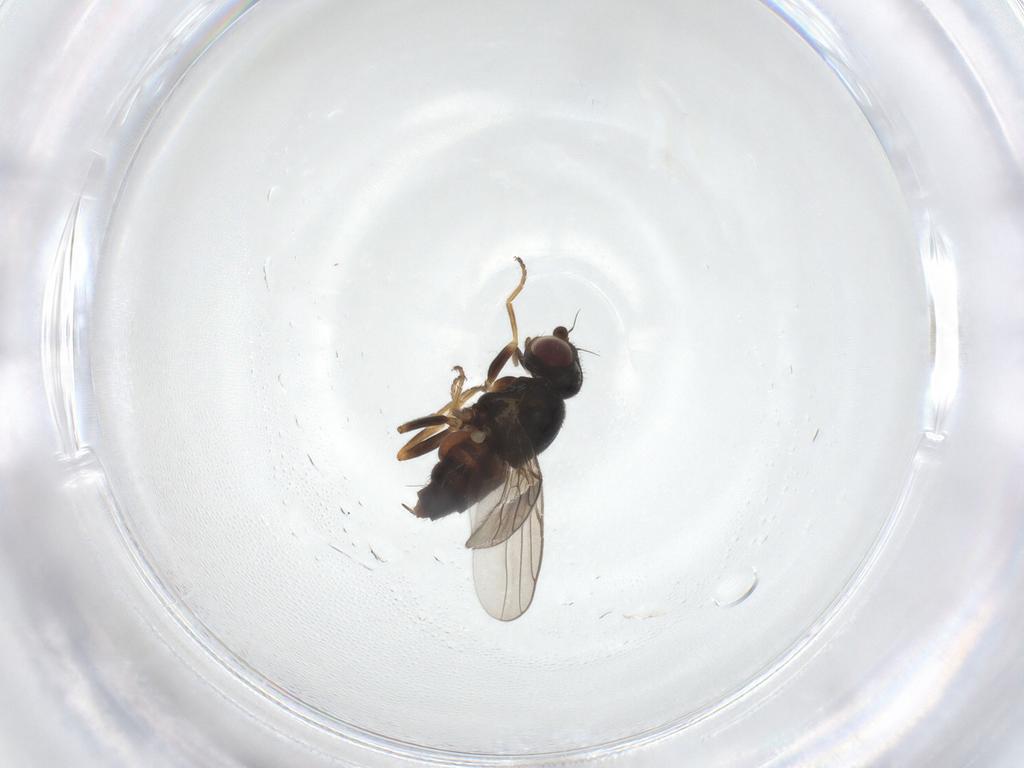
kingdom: Animalia
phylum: Arthropoda
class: Insecta
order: Diptera
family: Chloropidae
